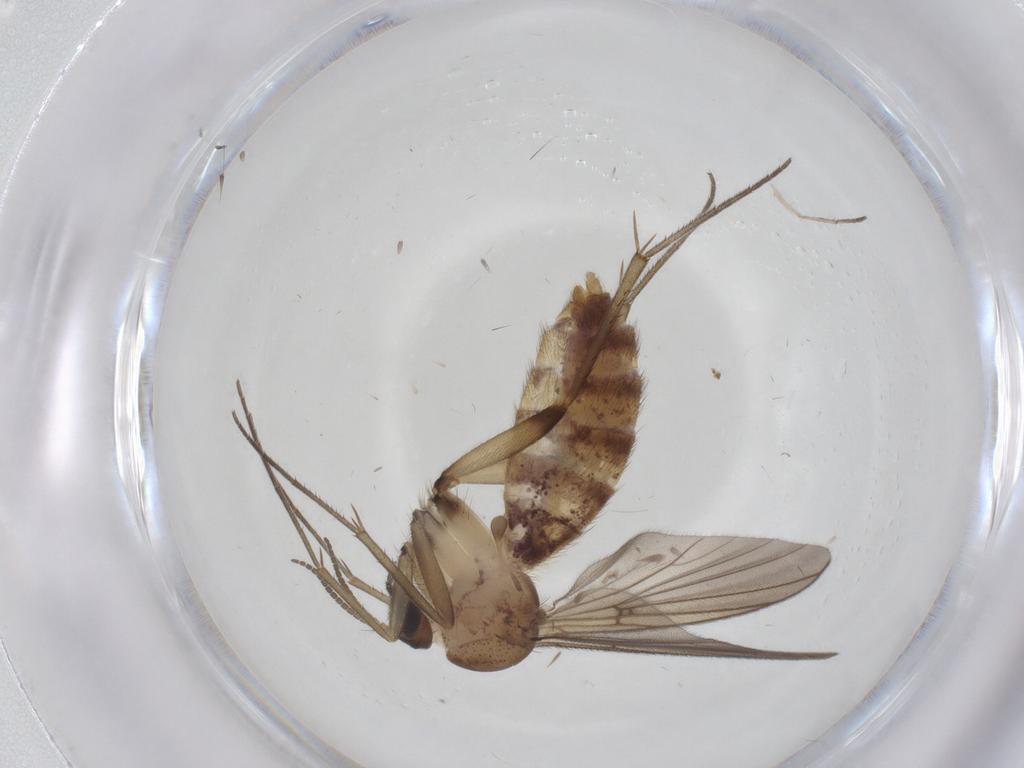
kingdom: Animalia
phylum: Arthropoda
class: Insecta
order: Diptera
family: Mycetophilidae
